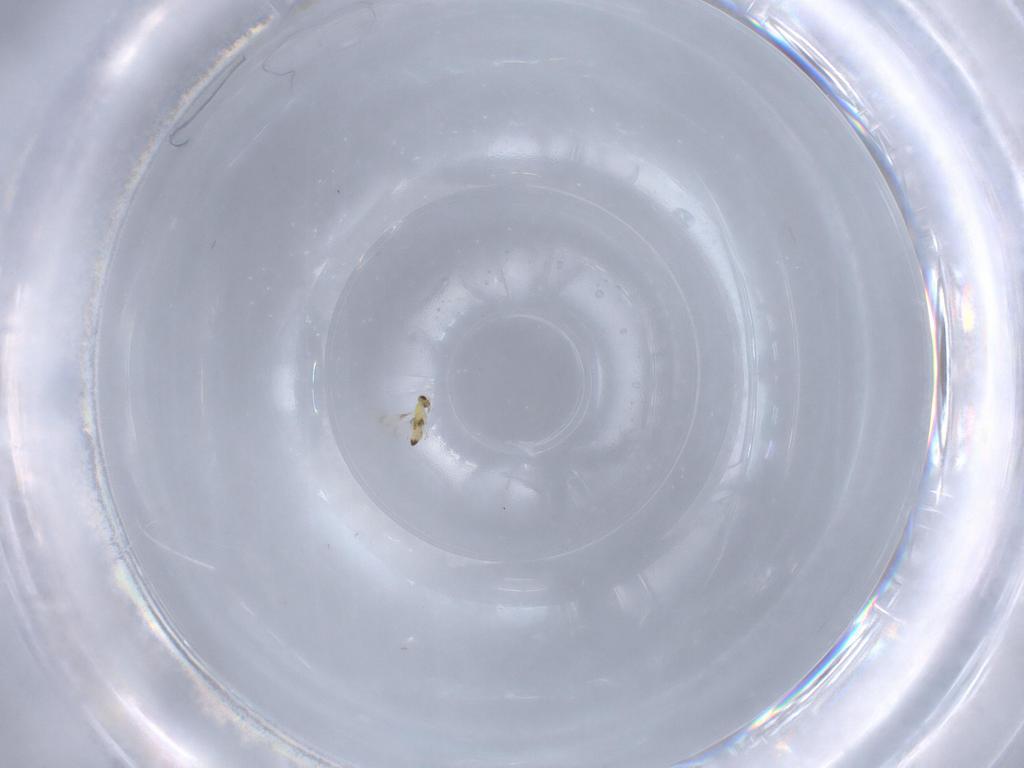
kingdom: Animalia
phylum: Arthropoda
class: Insecta
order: Hymenoptera
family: Trichogrammatidae
